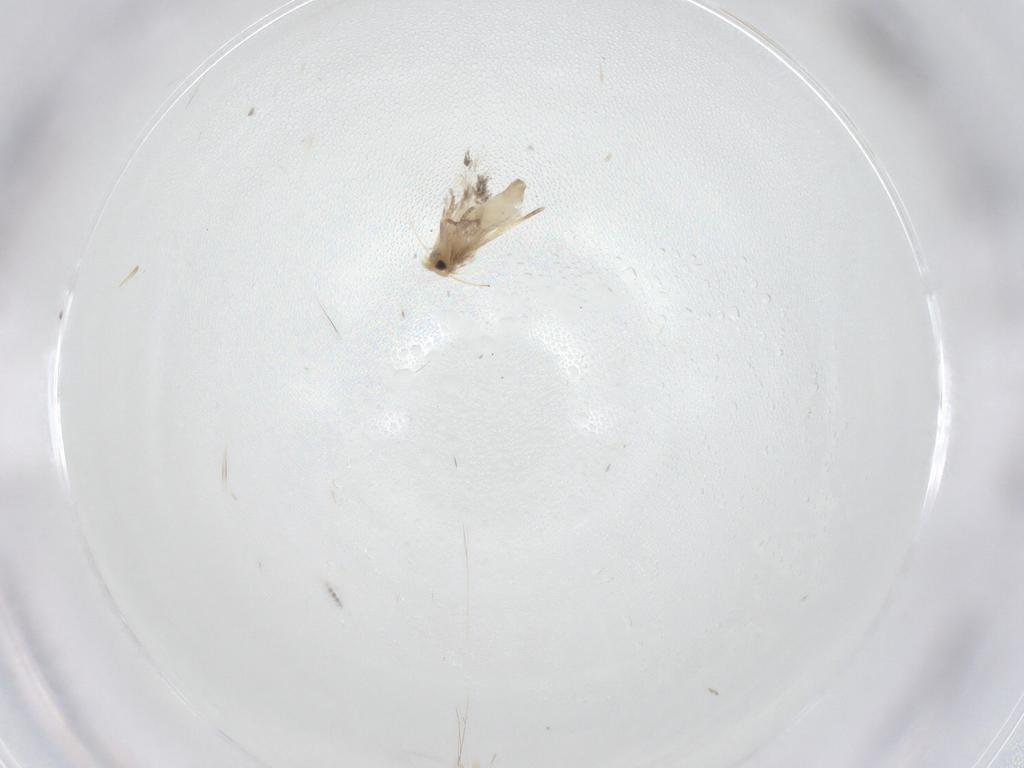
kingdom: Animalia
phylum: Arthropoda
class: Insecta
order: Lepidoptera
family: Nepticulidae
